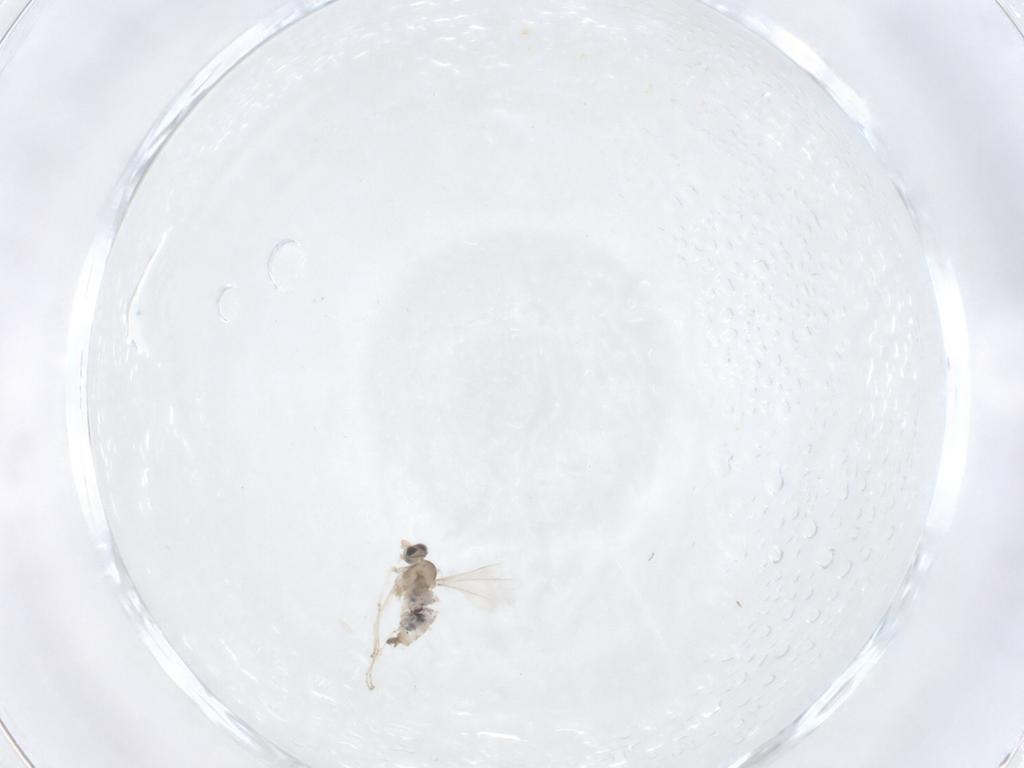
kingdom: Animalia
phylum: Arthropoda
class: Insecta
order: Diptera
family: Cecidomyiidae
